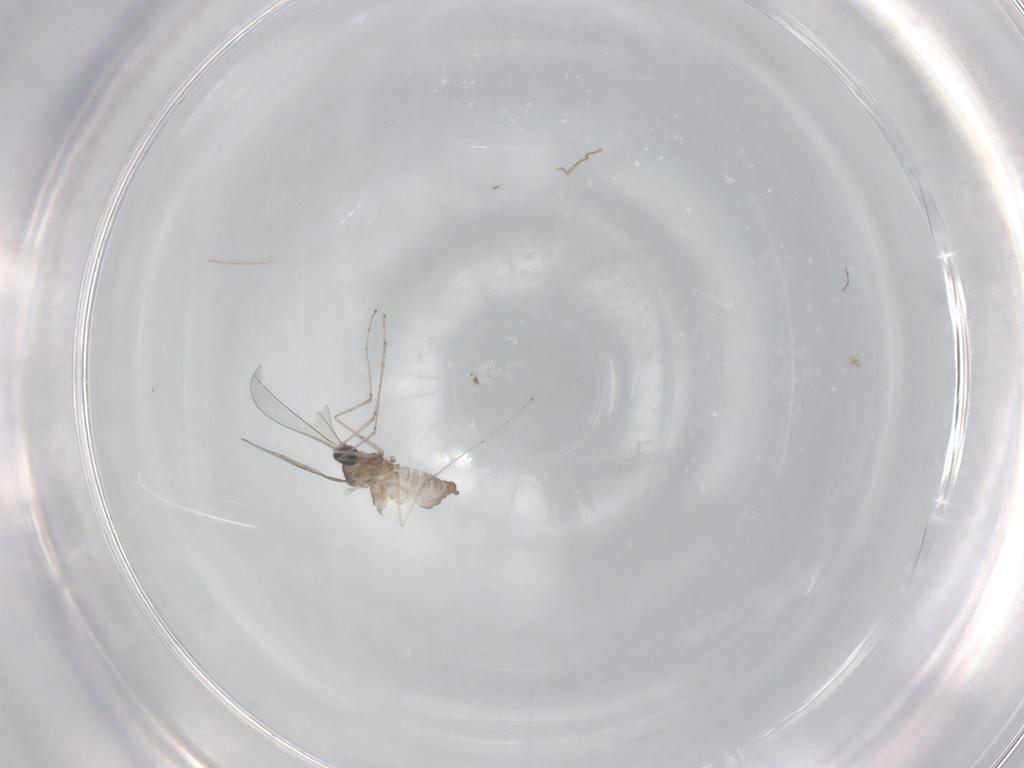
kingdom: Animalia
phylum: Arthropoda
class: Insecta
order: Diptera
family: Cecidomyiidae
